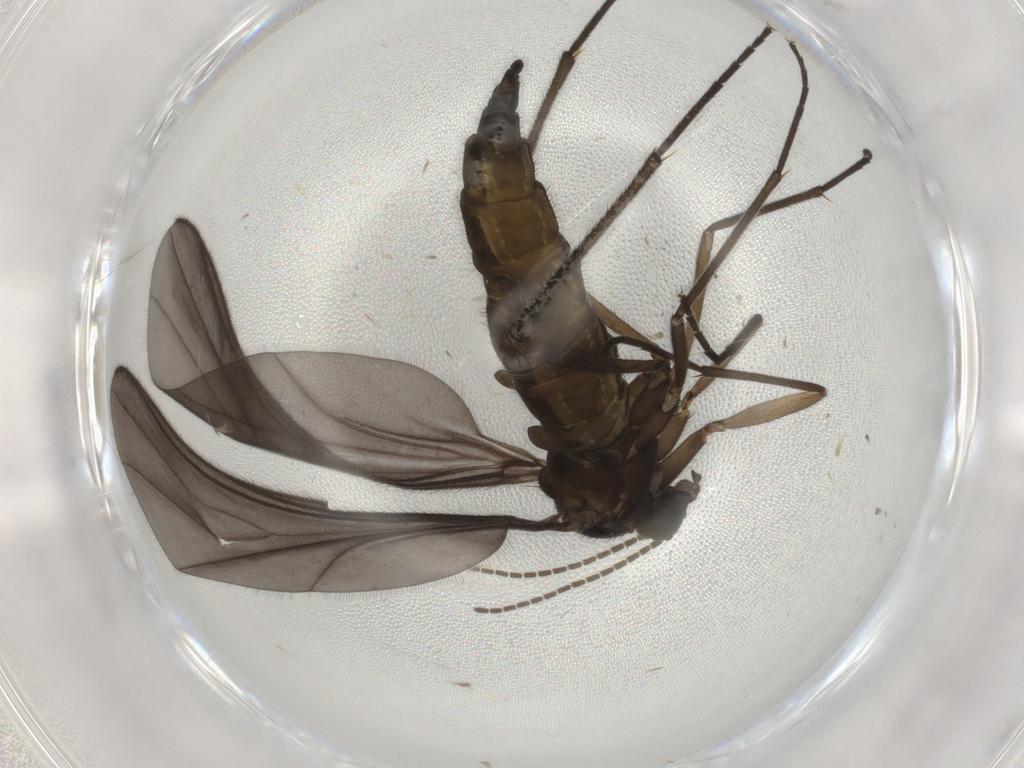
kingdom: Animalia
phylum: Arthropoda
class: Insecta
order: Diptera
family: Sciaridae
